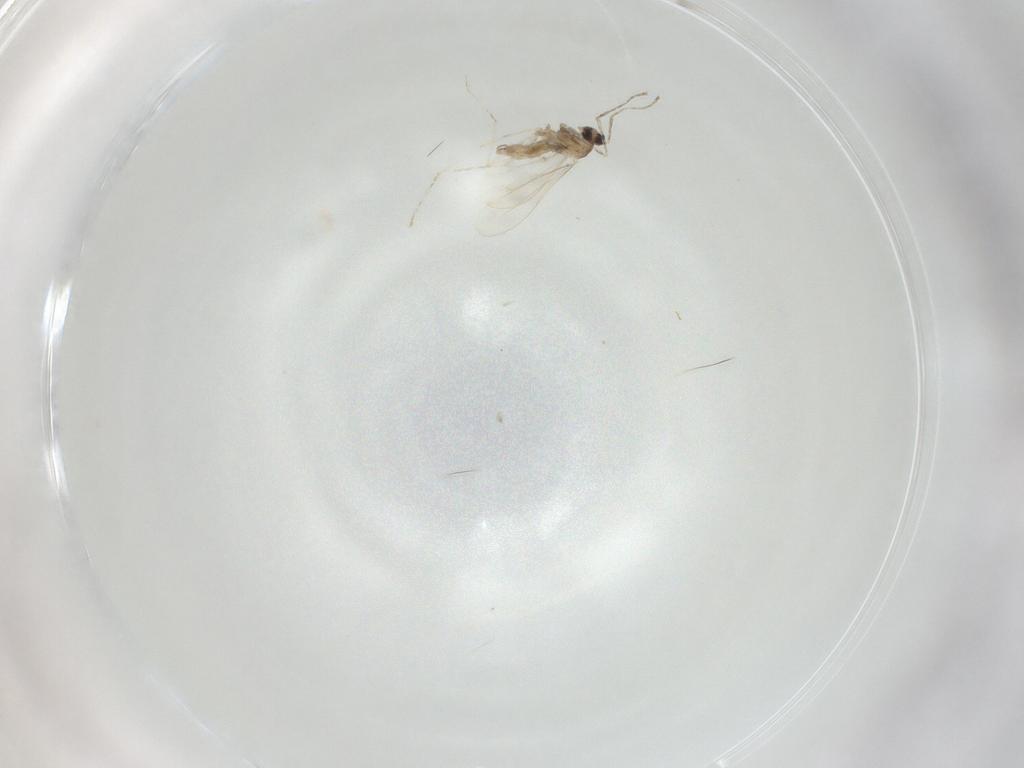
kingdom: Animalia
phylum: Arthropoda
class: Insecta
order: Diptera
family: Cecidomyiidae
